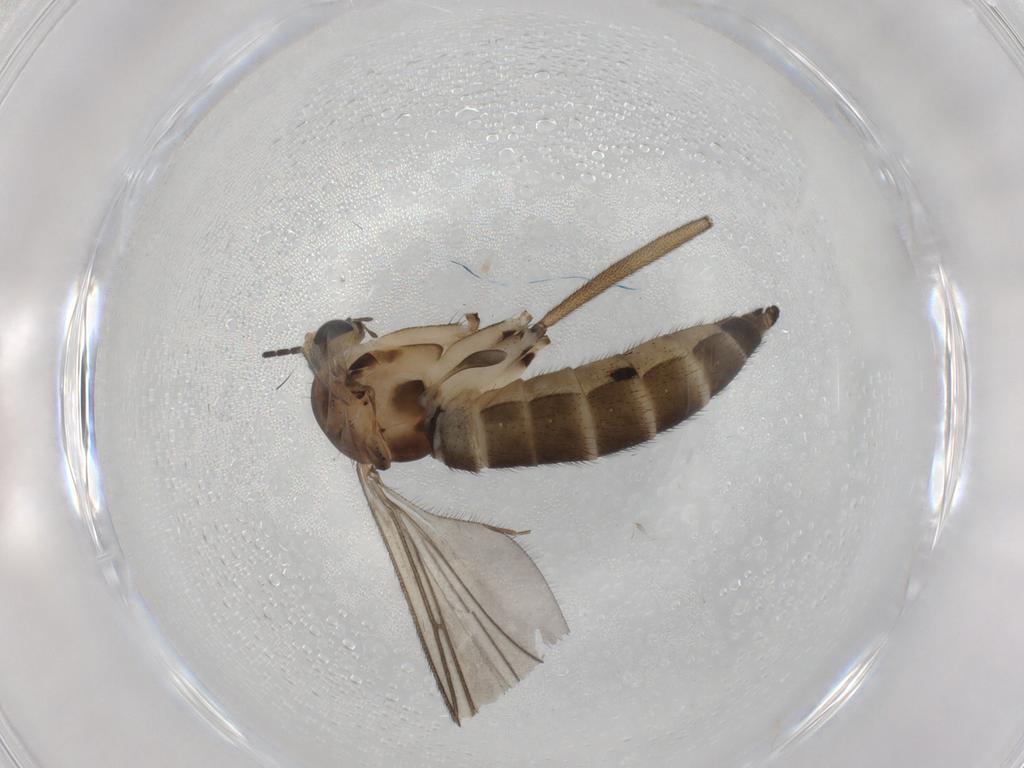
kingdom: Animalia
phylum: Arthropoda
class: Insecta
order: Diptera
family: Sciaridae
